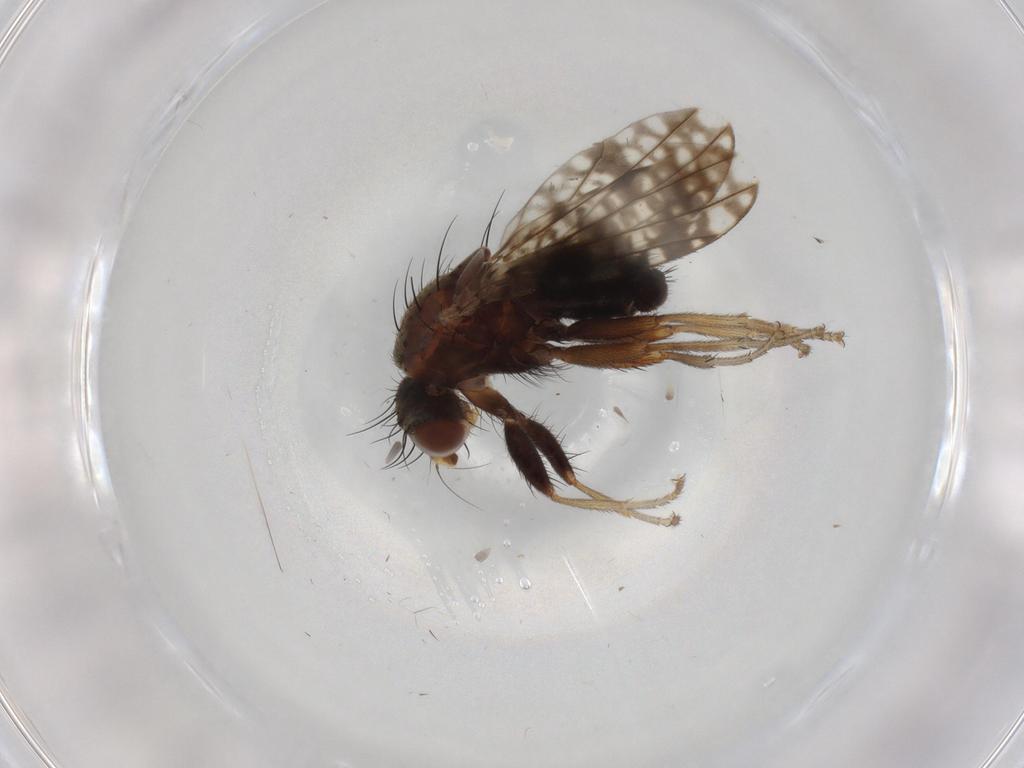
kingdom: Animalia
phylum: Arthropoda
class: Insecta
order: Diptera
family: Tephritidae
